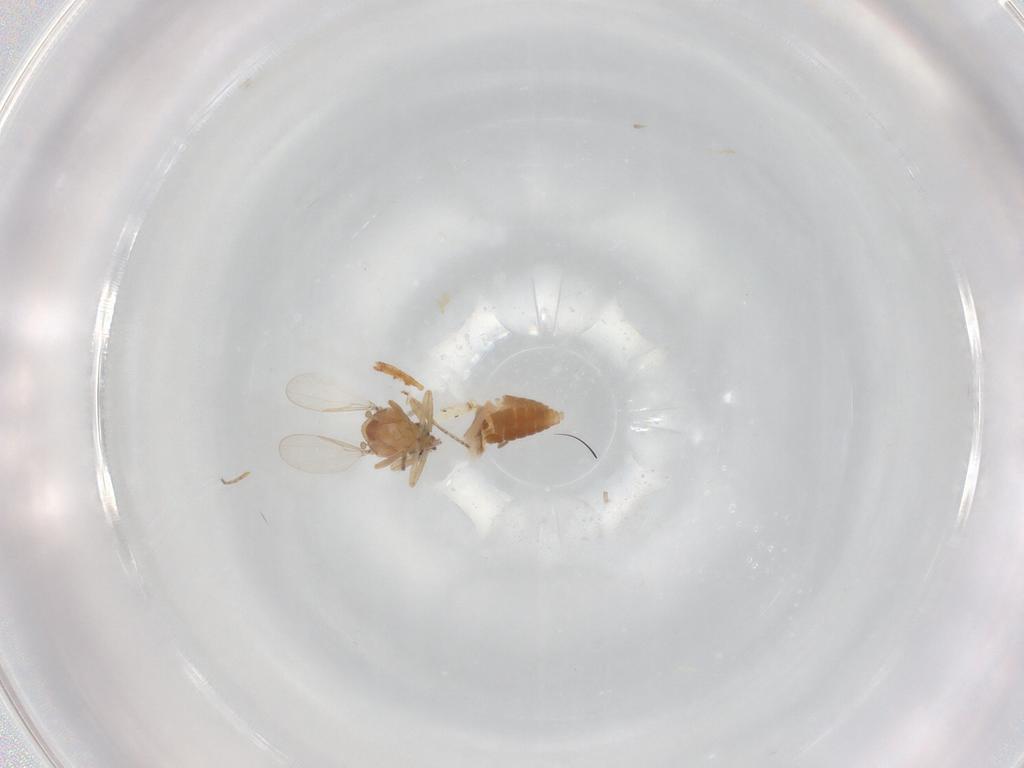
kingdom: Animalia
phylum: Arthropoda
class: Insecta
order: Diptera
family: Ceratopogonidae
